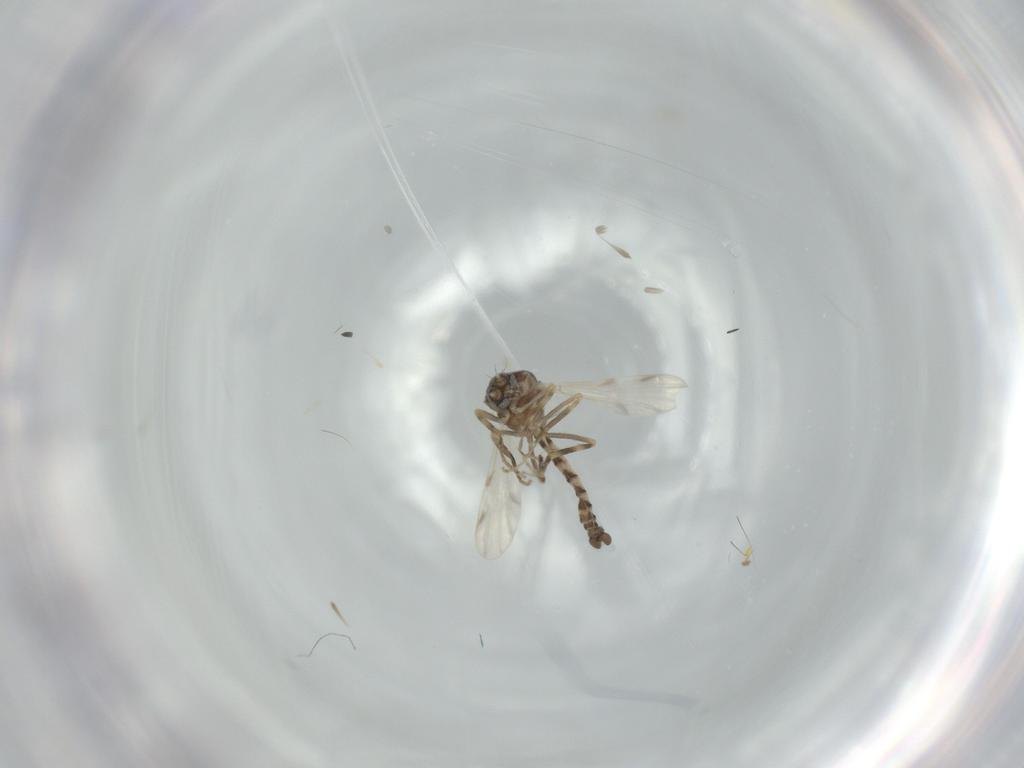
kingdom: Animalia
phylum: Arthropoda
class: Insecta
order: Diptera
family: Ceratopogonidae
